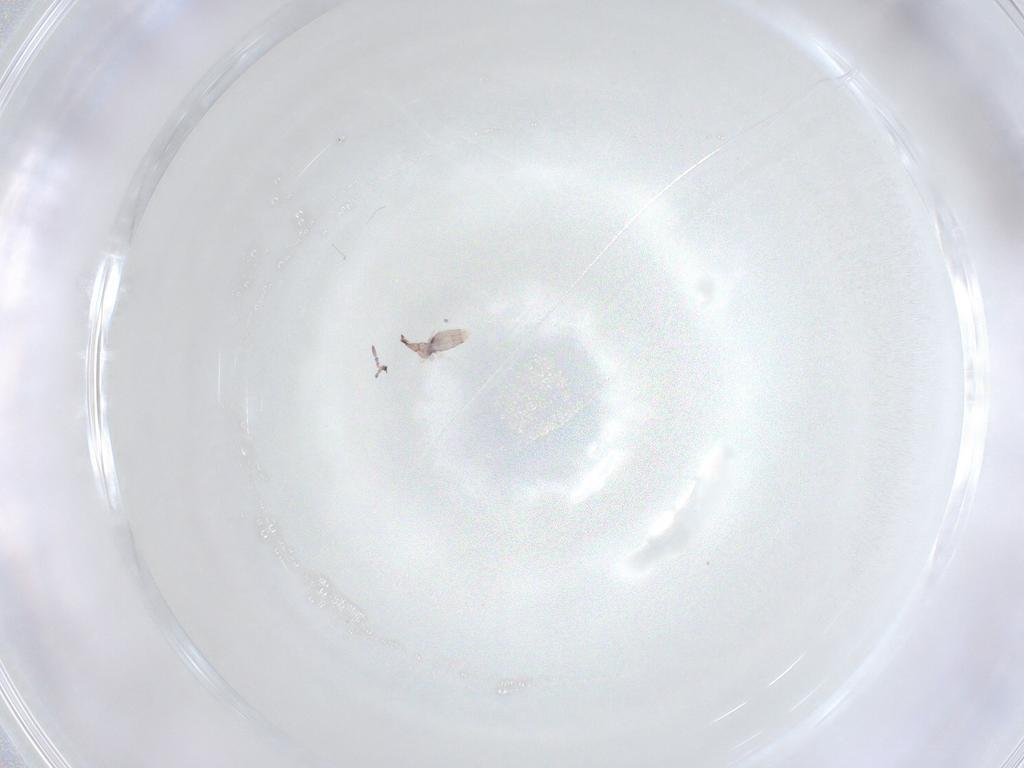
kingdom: Animalia
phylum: Arthropoda
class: Collembola
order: Entomobryomorpha
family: Entomobryidae
